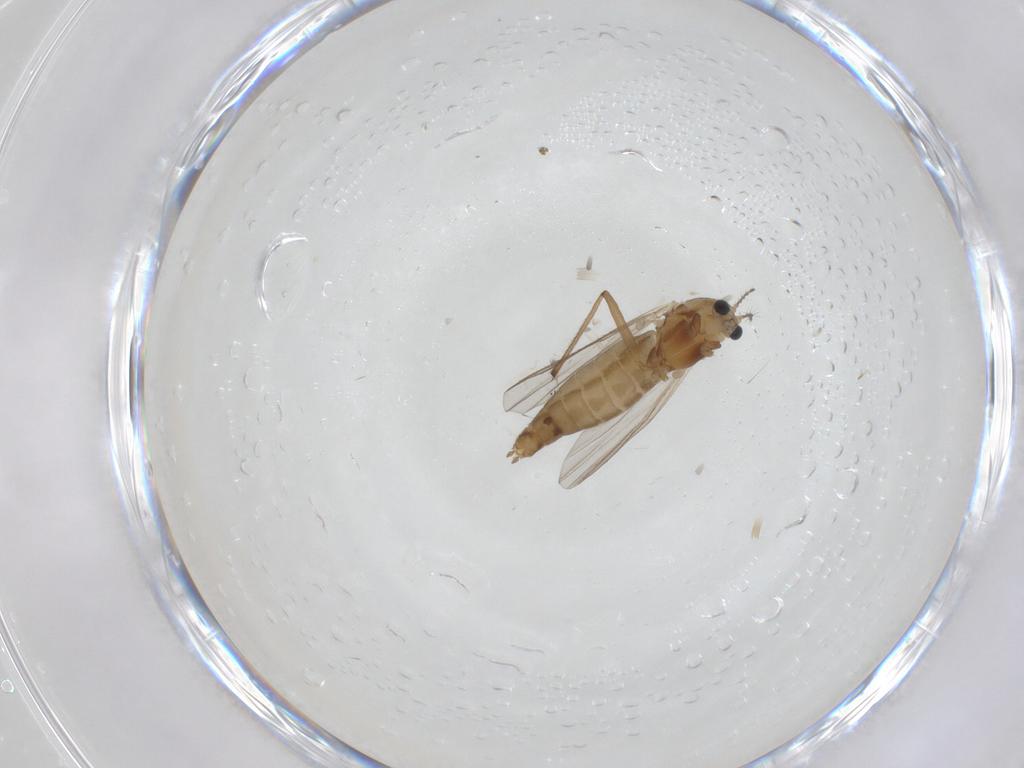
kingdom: Animalia
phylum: Arthropoda
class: Insecta
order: Diptera
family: Chironomidae
